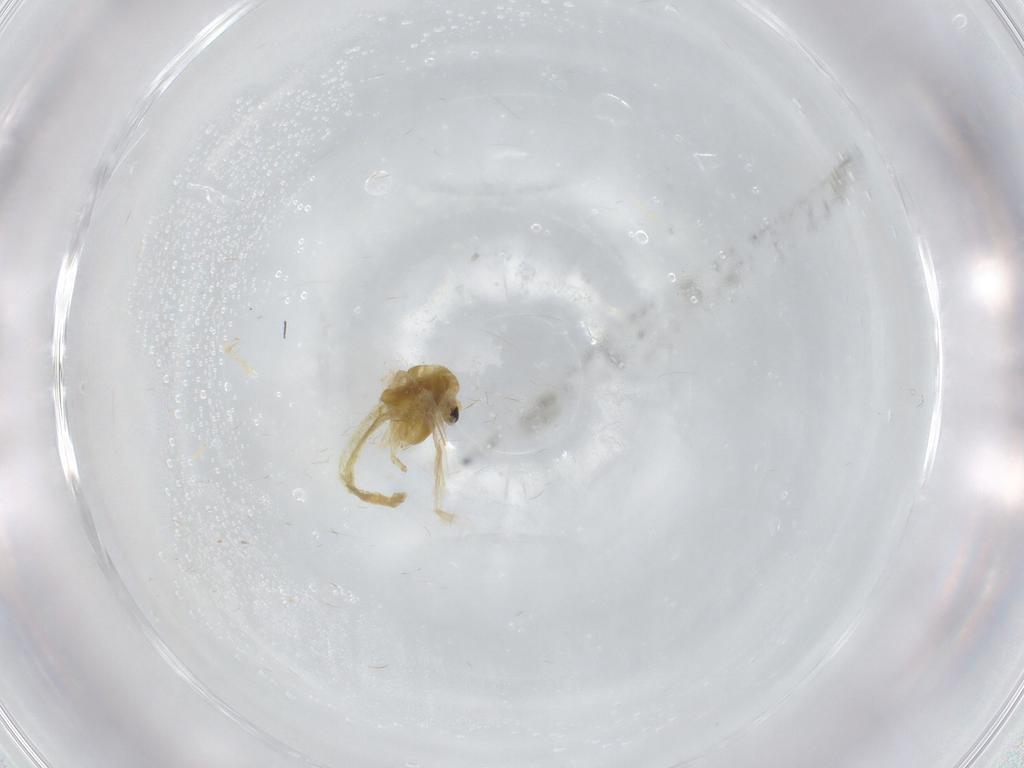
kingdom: Animalia
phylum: Arthropoda
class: Insecta
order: Diptera
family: Chironomidae
